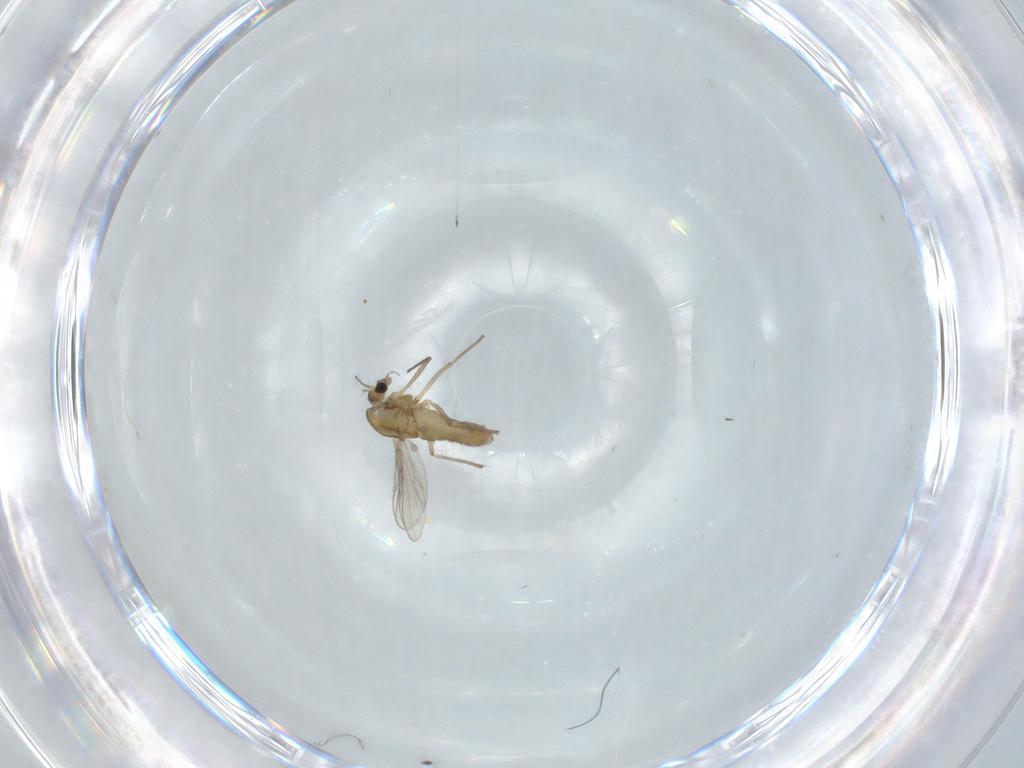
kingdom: Animalia
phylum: Arthropoda
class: Insecta
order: Diptera
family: Chironomidae
